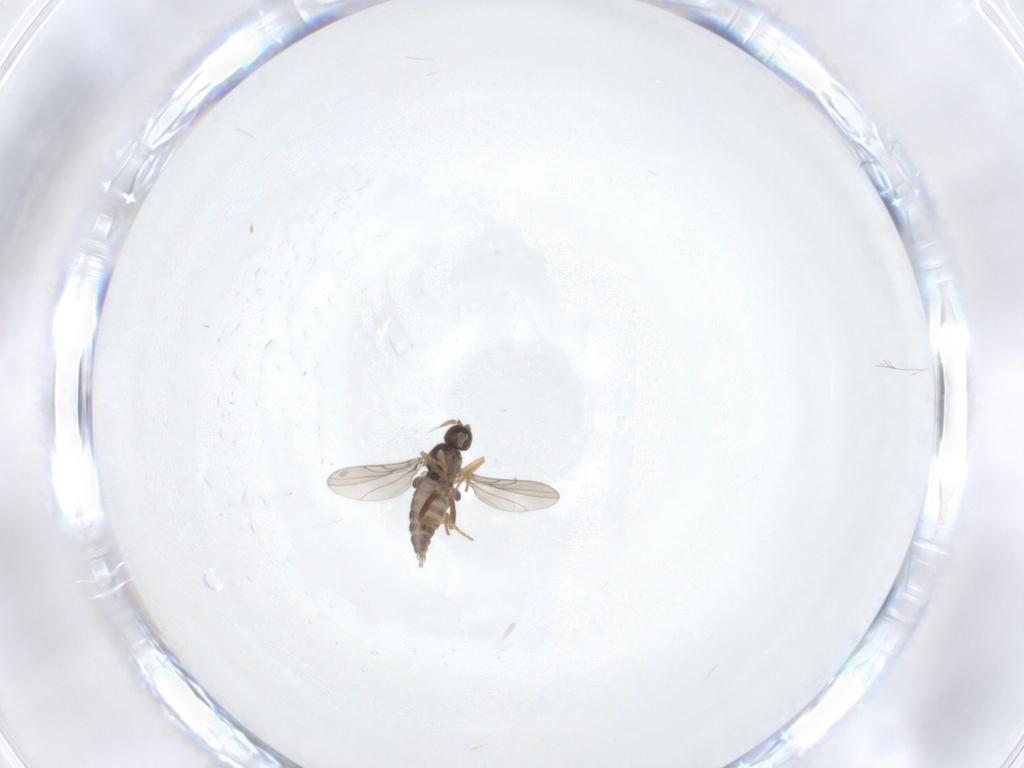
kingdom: Animalia
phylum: Arthropoda
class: Insecta
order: Diptera
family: Hybotidae
